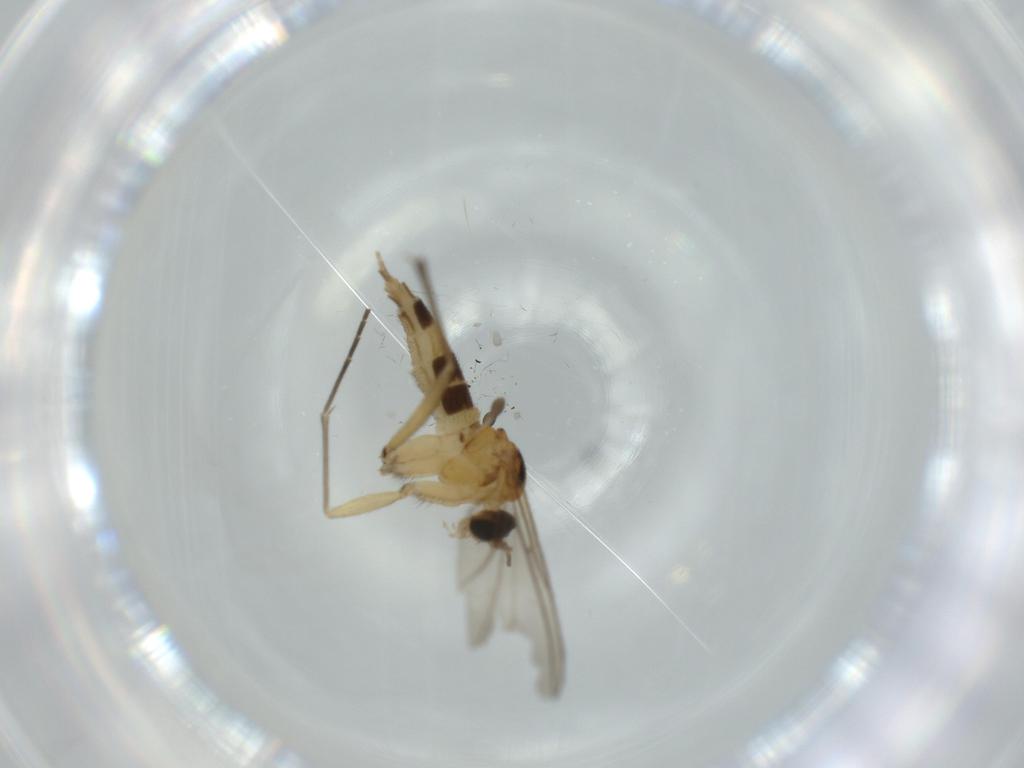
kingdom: Animalia
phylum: Arthropoda
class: Insecta
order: Diptera
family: Sciaridae
